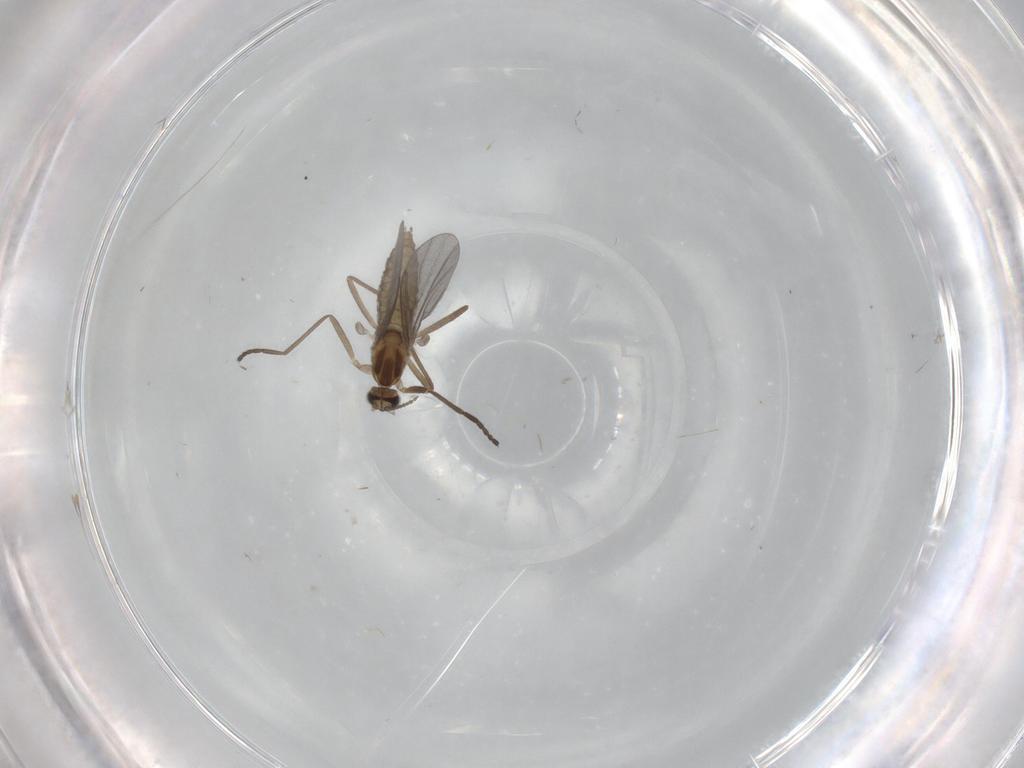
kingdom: Animalia
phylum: Arthropoda
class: Insecta
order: Diptera
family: Cecidomyiidae
